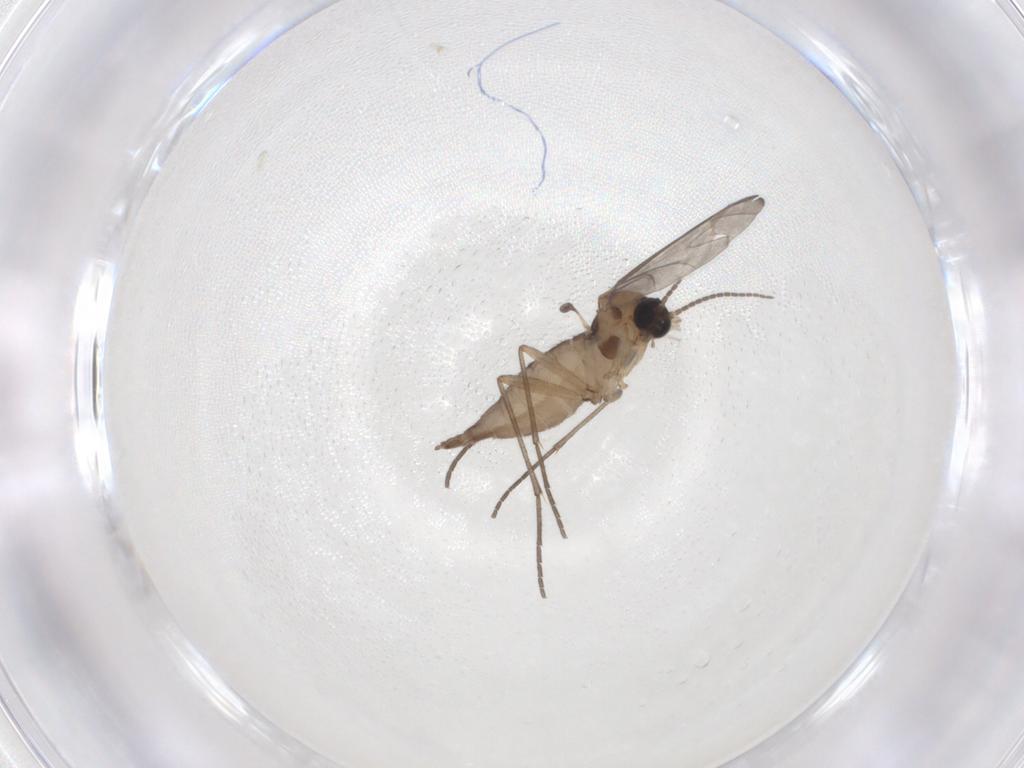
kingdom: Animalia
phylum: Arthropoda
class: Insecta
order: Diptera
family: Sciaridae
